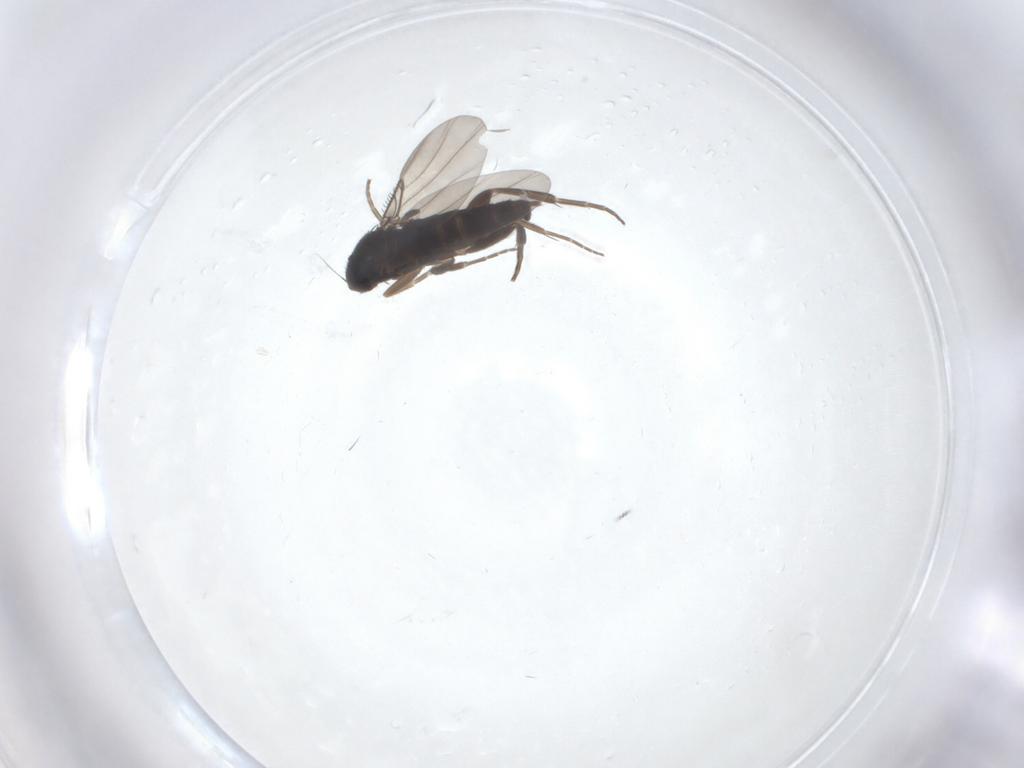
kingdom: Animalia
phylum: Arthropoda
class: Insecta
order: Diptera
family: Phoridae
